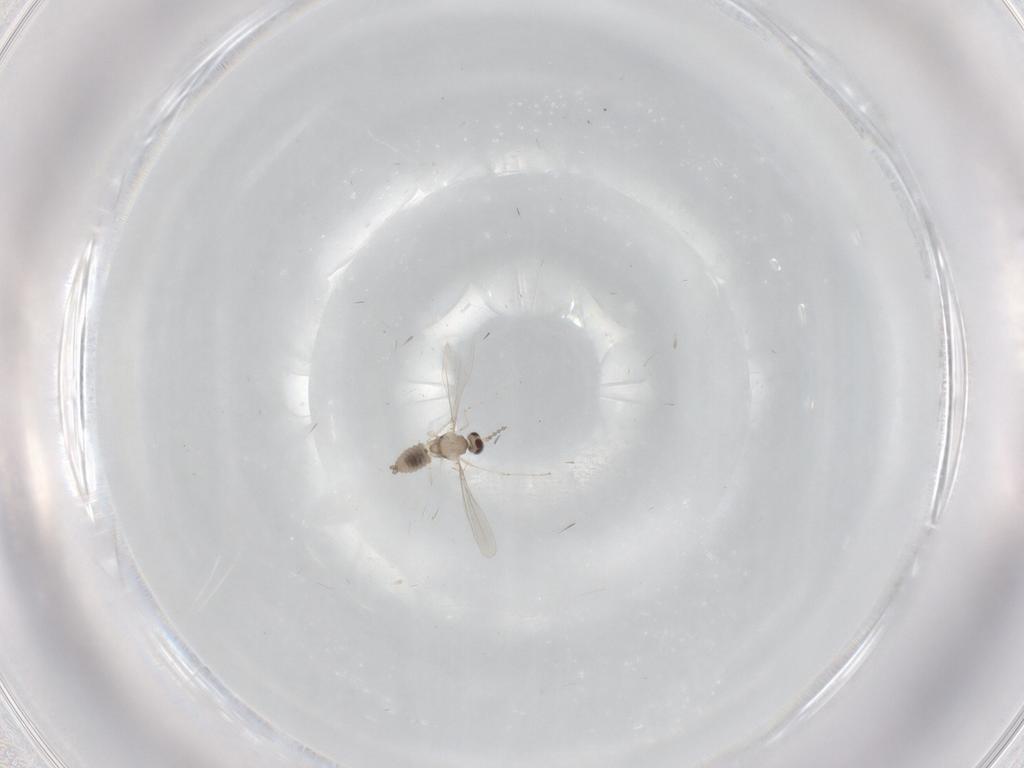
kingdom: Animalia
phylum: Arthropoda
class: Insecta
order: Diptera
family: Cecidomyiidae
